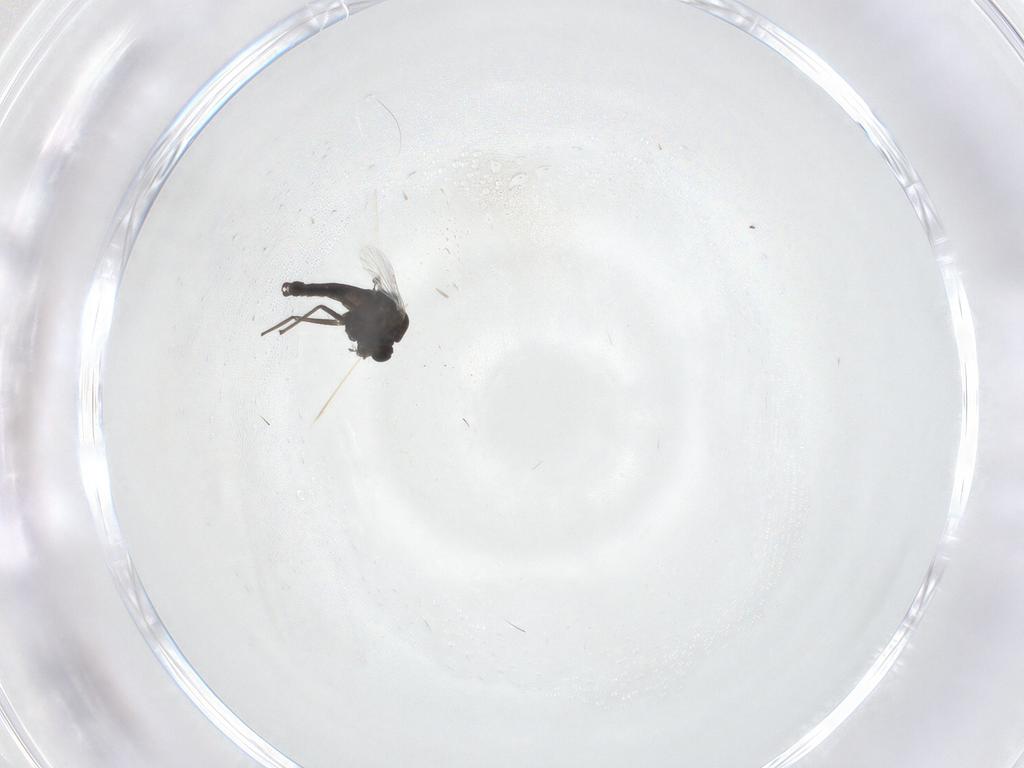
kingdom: Animalia
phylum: Arthropoda
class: Insecta
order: Diptera
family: Chironomidae
